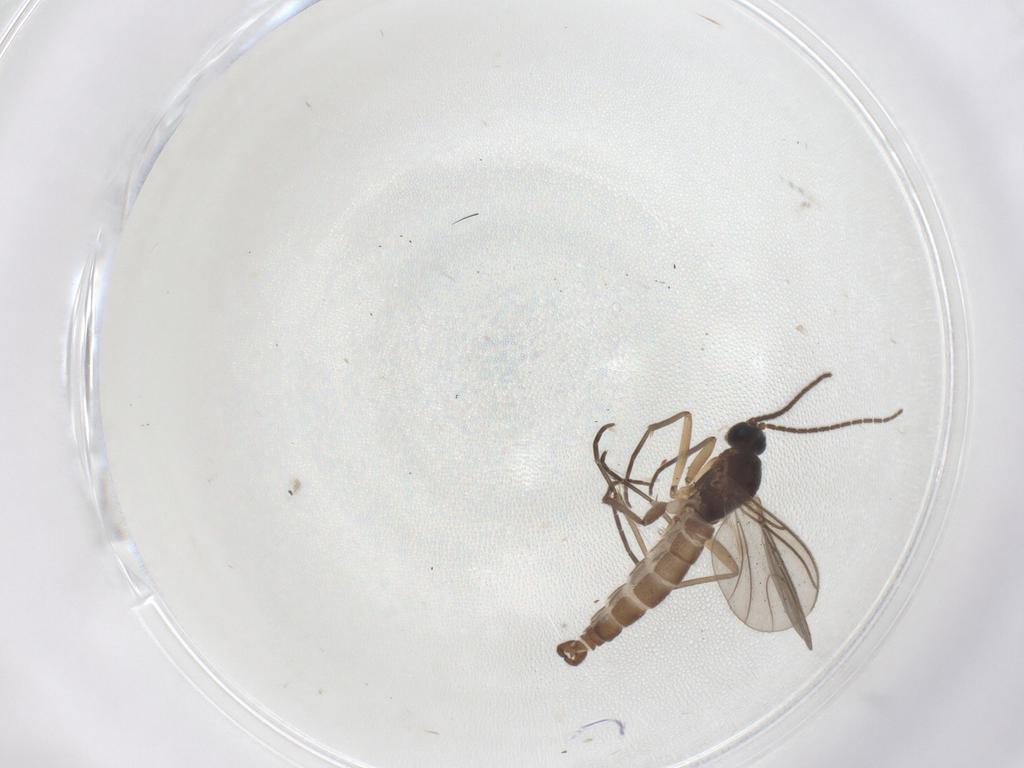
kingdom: Animalia
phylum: Arthropoda
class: Insecta
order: Diptera
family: Sciaridae
